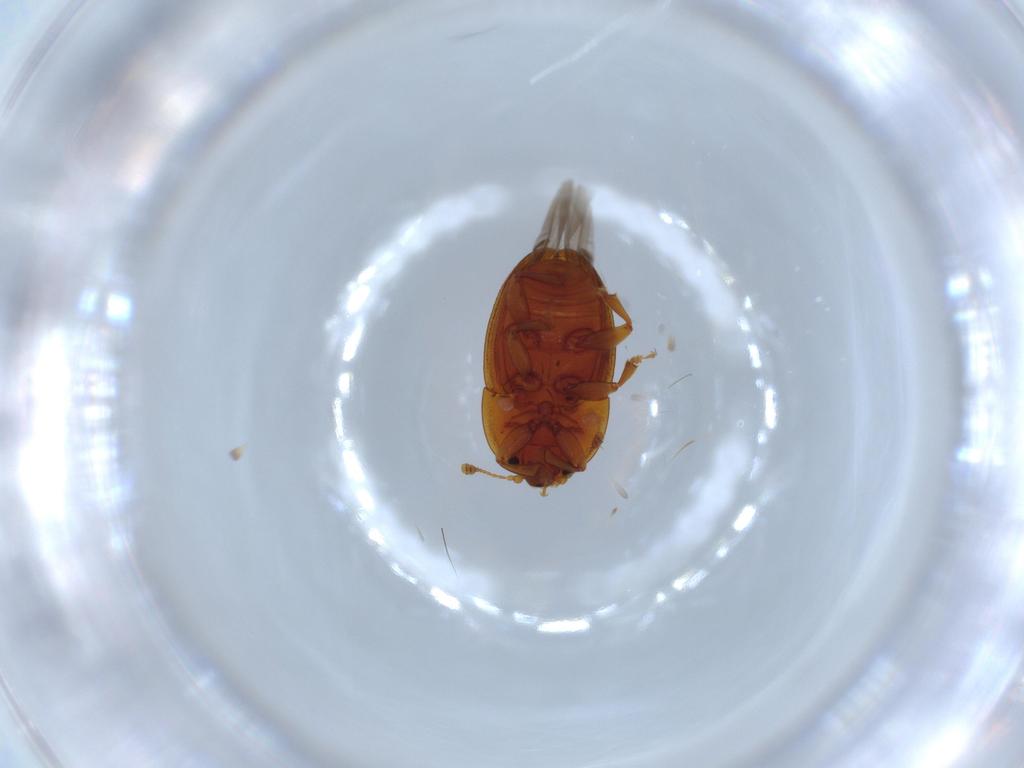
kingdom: Animalia
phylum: Arthropoda
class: Insecta
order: Coleoptera
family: Nitidulidae
